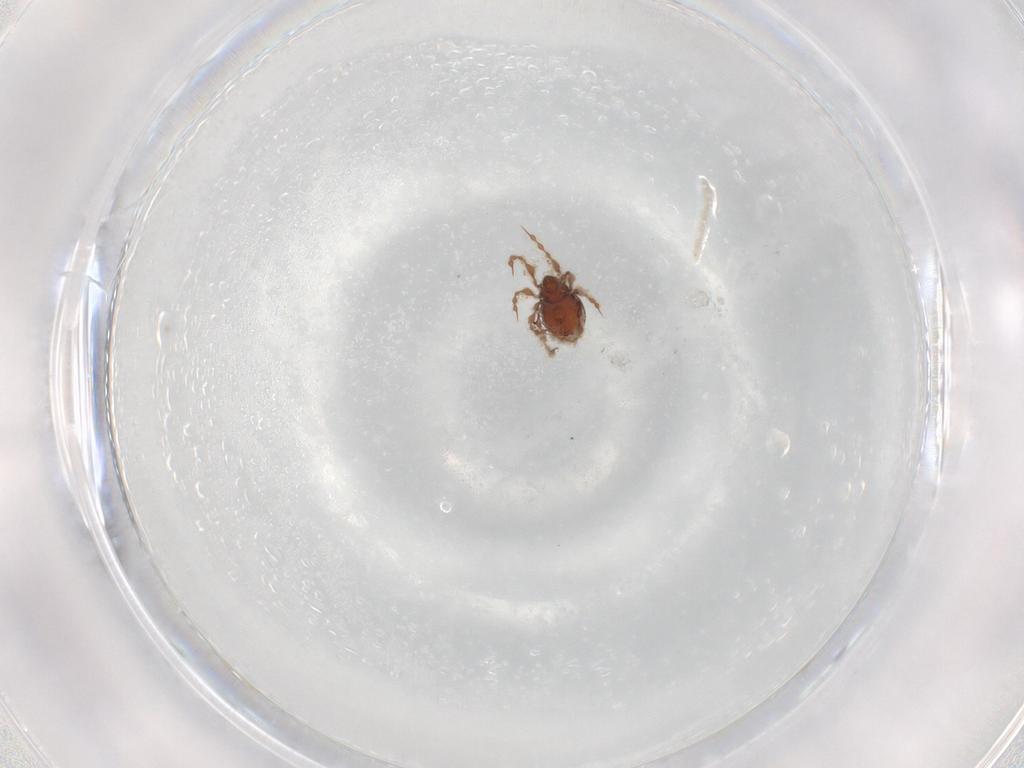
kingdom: Animalia
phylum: Arthropoda
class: Arachnida
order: Sarcoptiformes
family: Damaeidae
